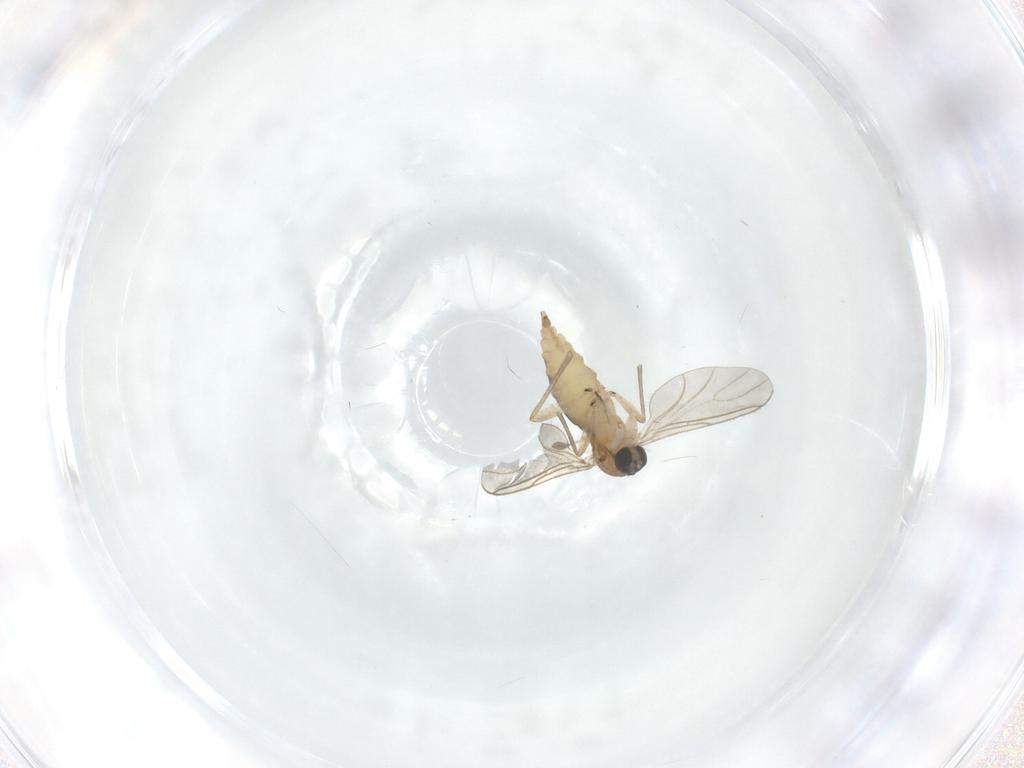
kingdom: Animalia
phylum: Arthropoda
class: Insecta
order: Diptera
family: Sciaridae
